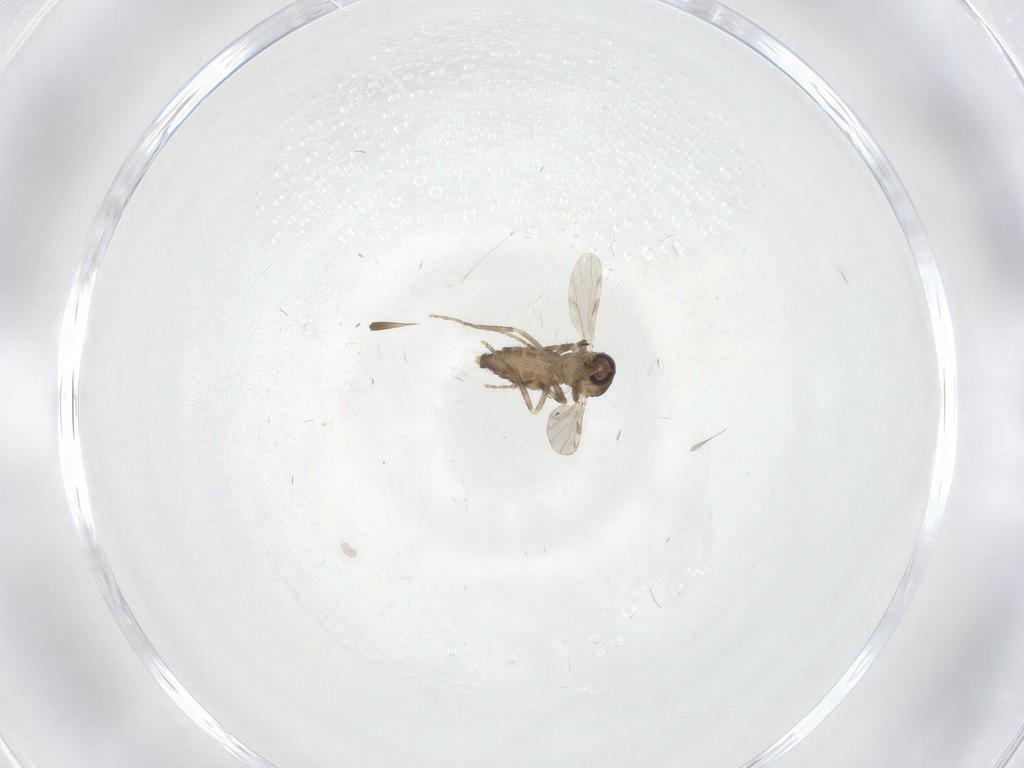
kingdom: Animalia
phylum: Arthropoda
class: Insecta
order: Diptera
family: Ceratopogonidae
